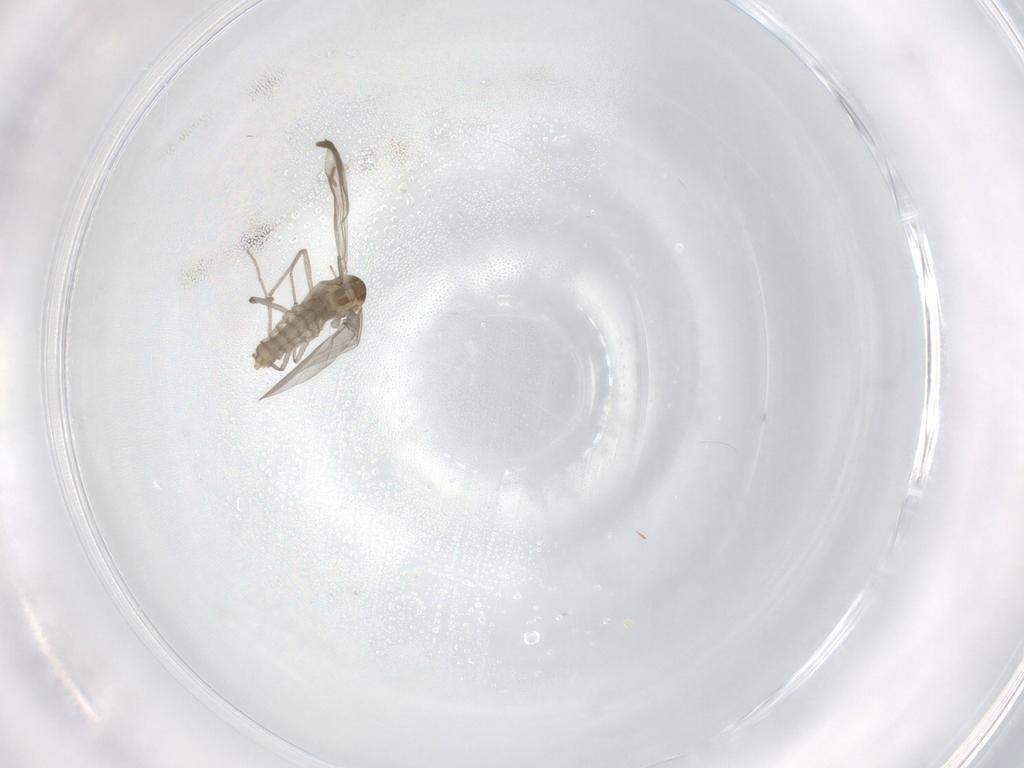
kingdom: Animalia
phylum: Arthropoda
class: Insecta
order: Diptera
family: Chironomidae
